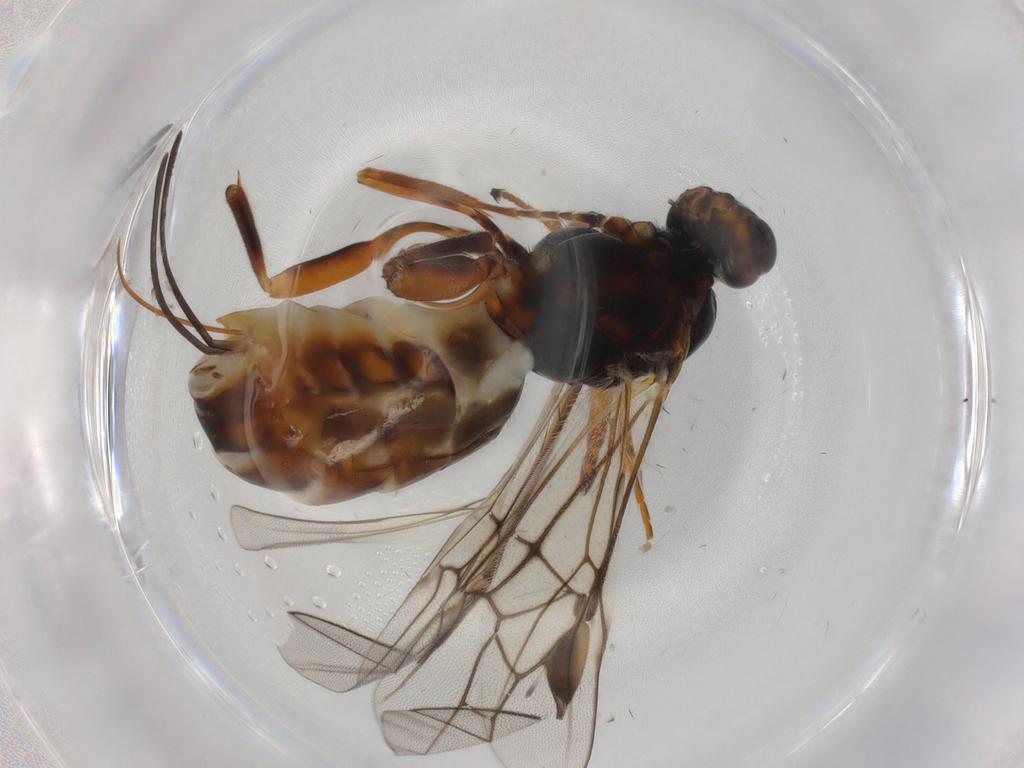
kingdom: Animalia
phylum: Arthropoda
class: Insecta
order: Hymenoptera
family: Braconidae
